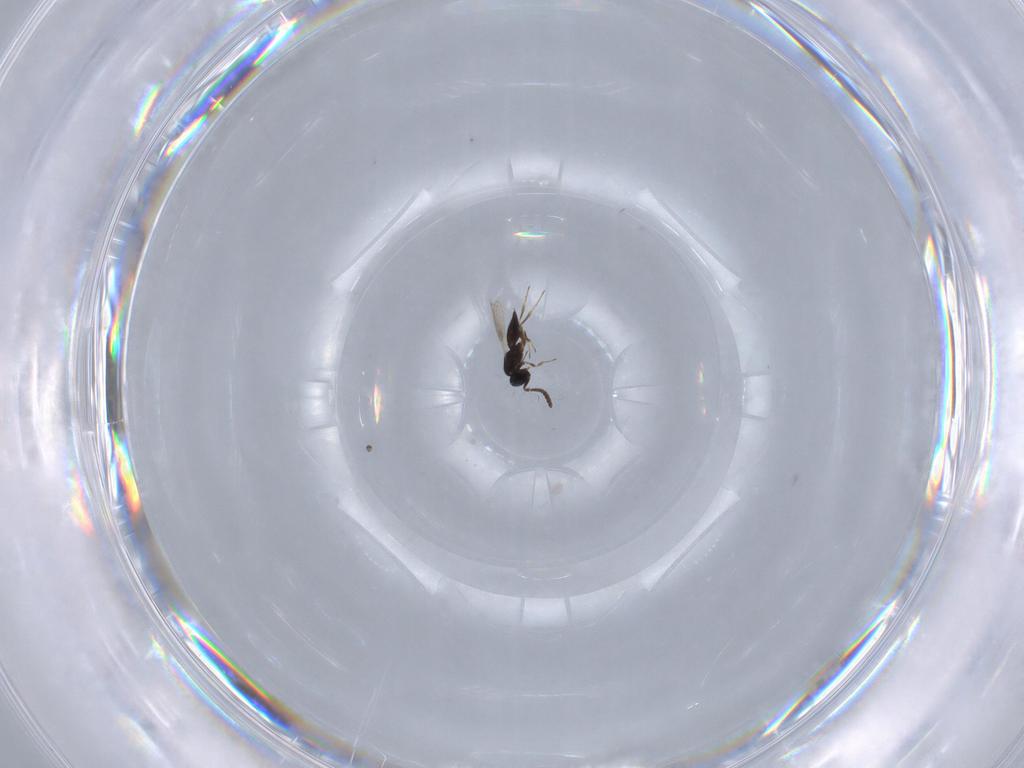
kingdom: Animalia
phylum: Arthropoda
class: Insecta
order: Hymenoptera
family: Scelionidae
